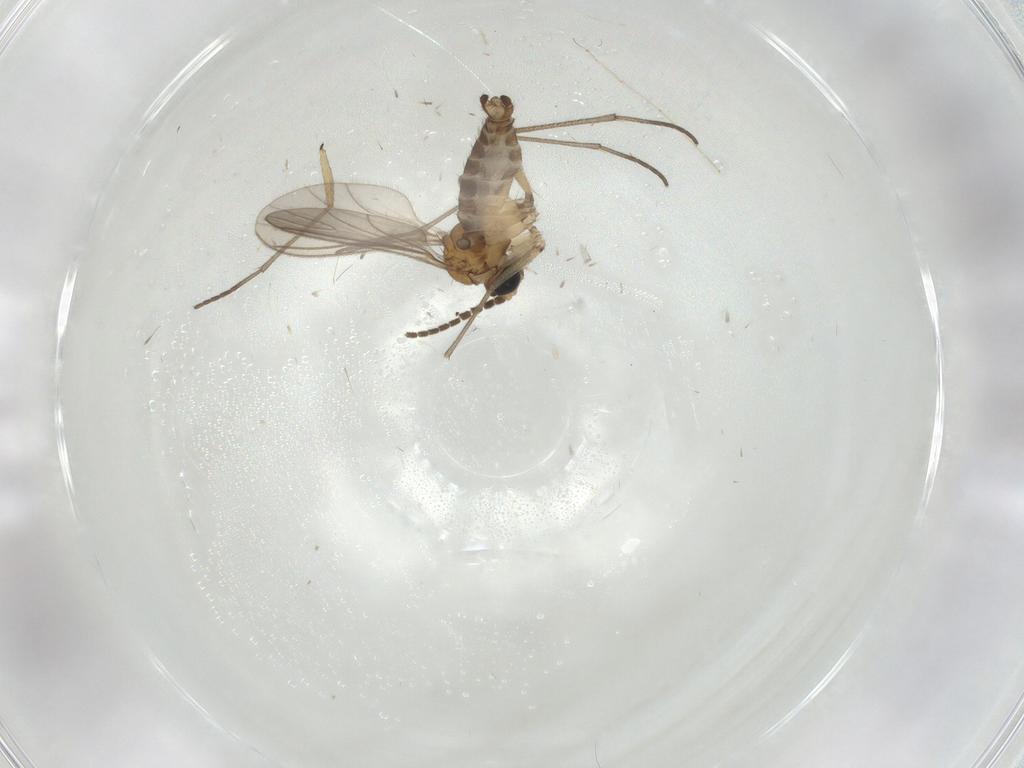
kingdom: Animalia
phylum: Arthropoda
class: Insecta
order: Diptera
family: Sciaridae
